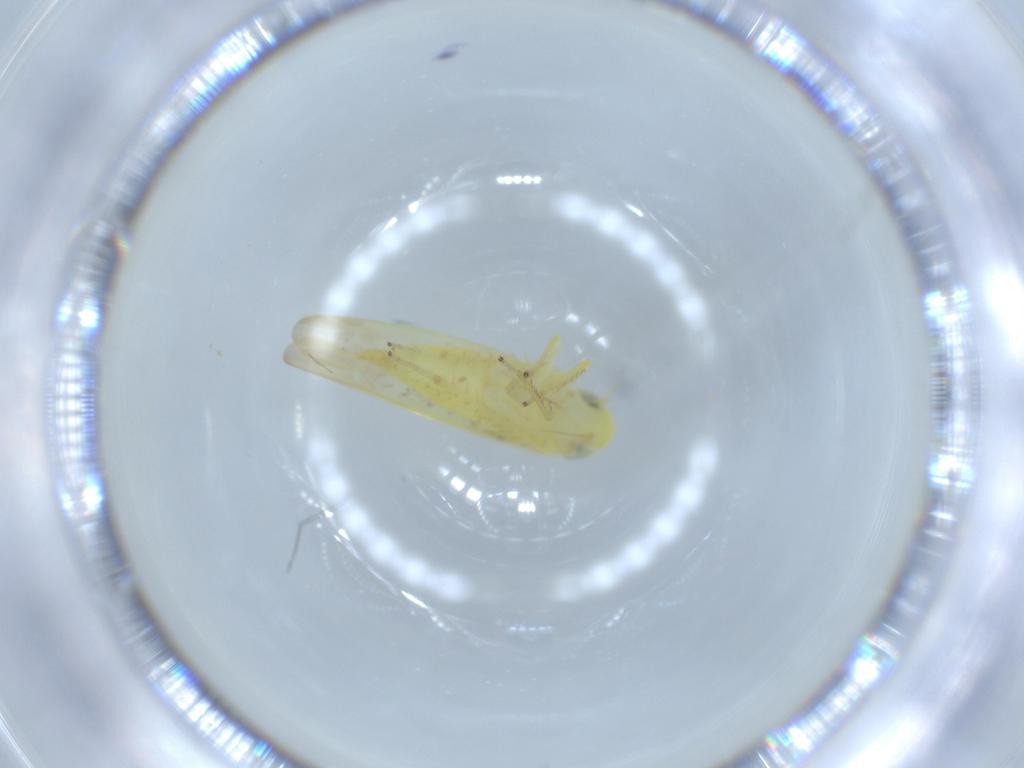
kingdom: Animalia
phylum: Arthropoda
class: Insecta
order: Hemiptera
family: Cicadellidae
